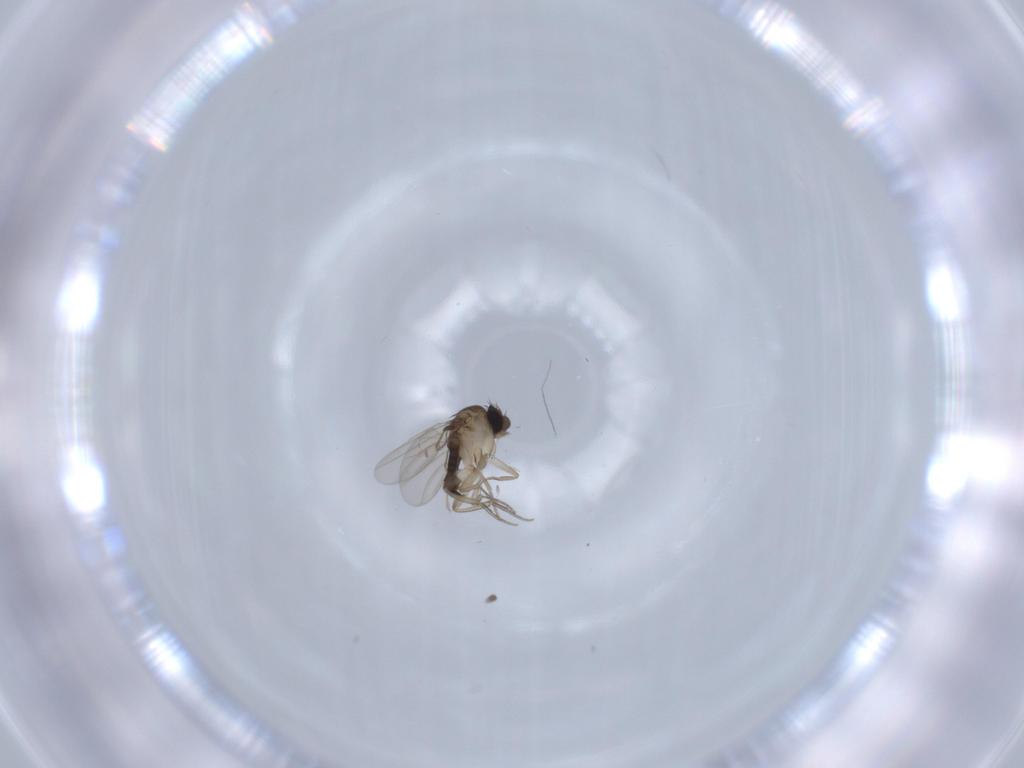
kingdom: Animalia
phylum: Arthropoda
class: Insecta
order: Diptera
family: Phoridae
